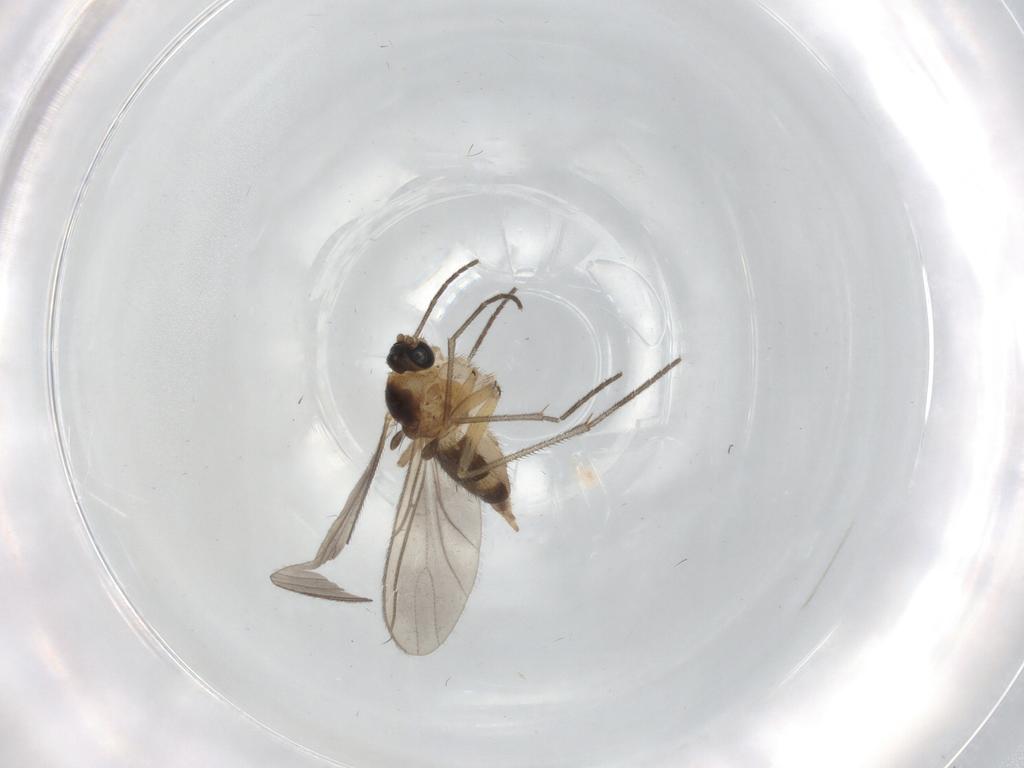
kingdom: Animalia
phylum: Arthropoda
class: Insecta
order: Diptera
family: Sciaridae
